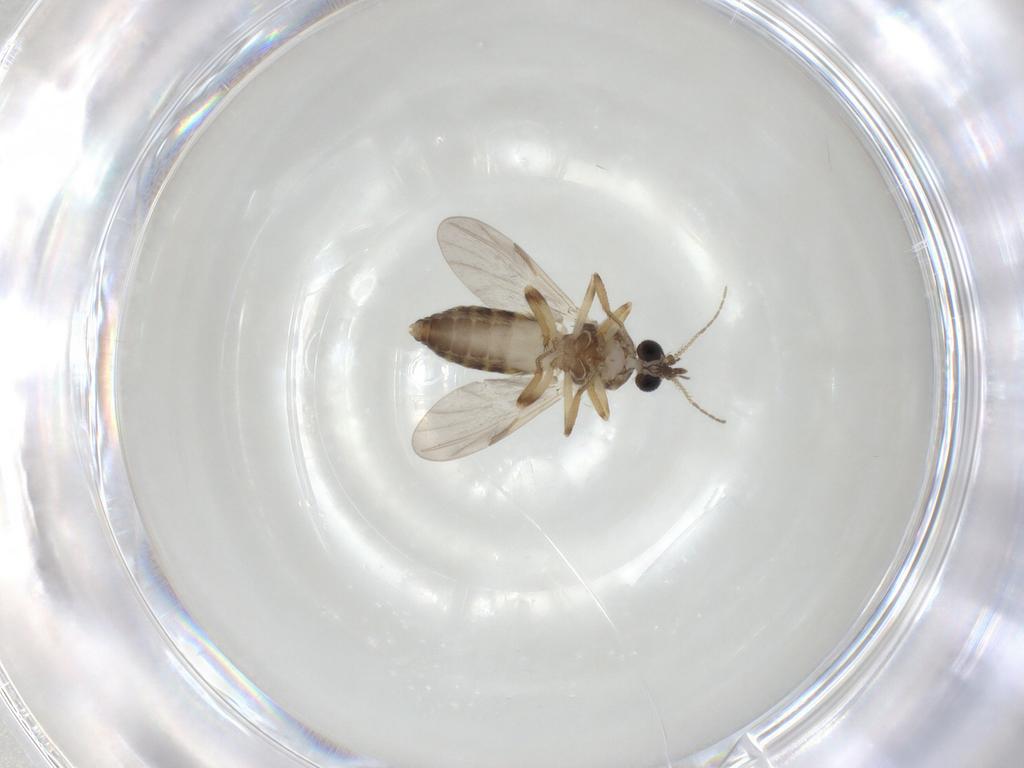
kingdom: Animalia
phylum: Arthropoda
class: Insecta
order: Diptera
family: Ceratopogonidae
